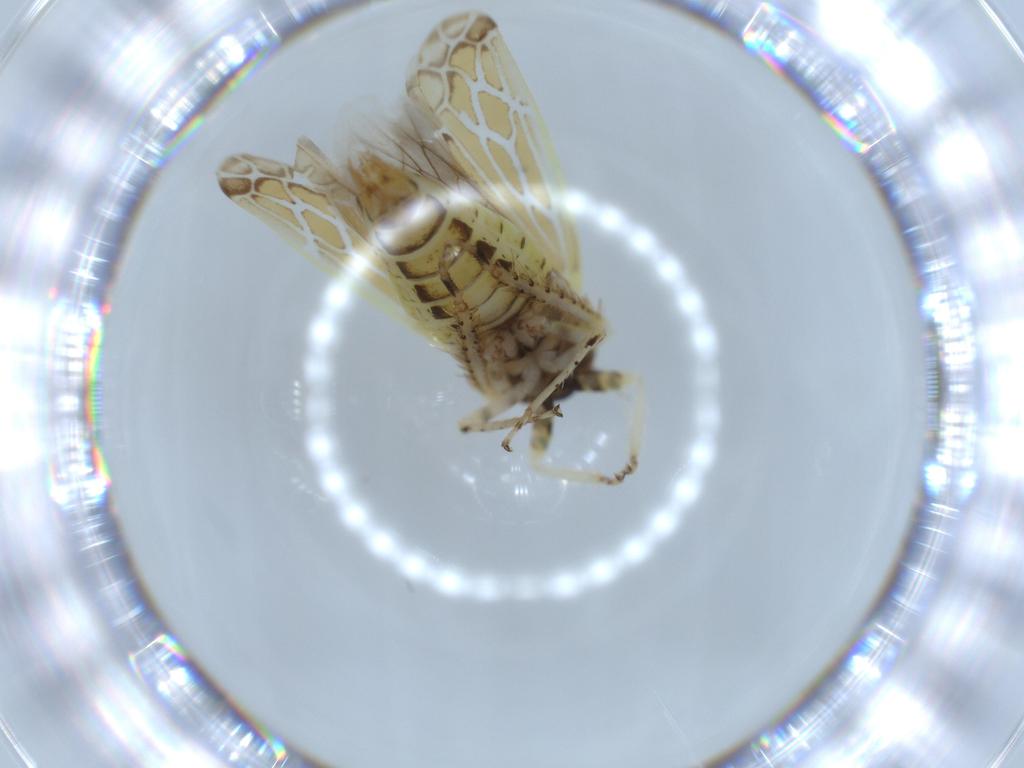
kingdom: Animalia
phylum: Arthropoda
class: Insecta
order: Hemiptera
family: Cicadellidae
